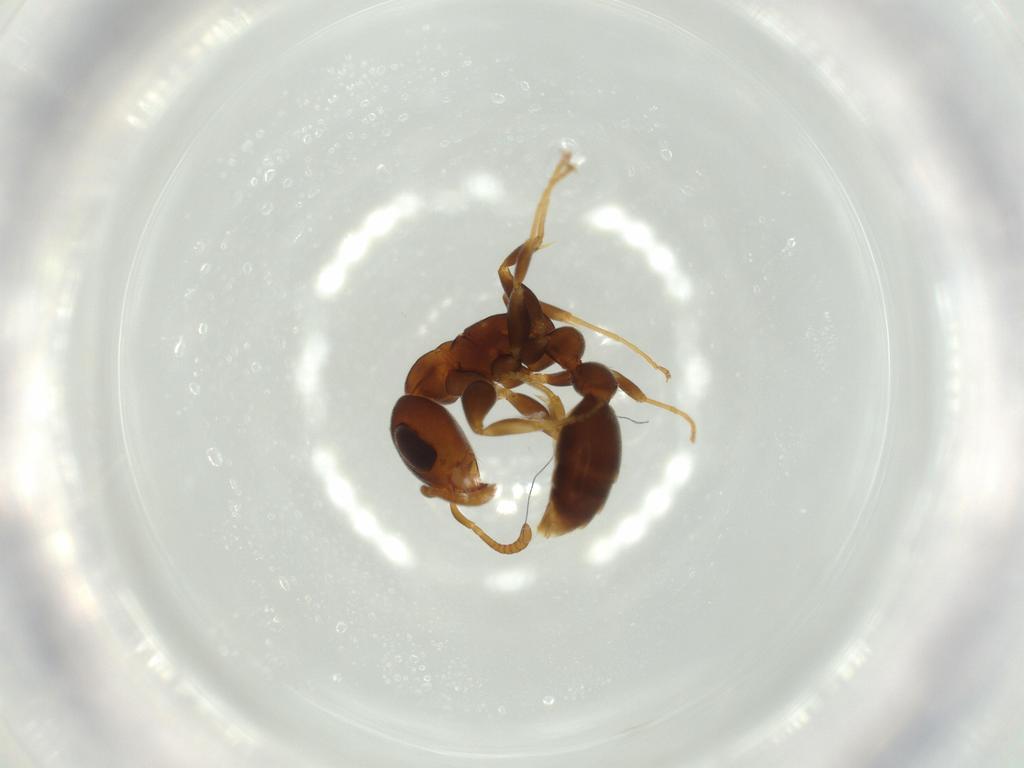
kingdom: Animalia
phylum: Arthropoda
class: Insecta
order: Hymenoptera
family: Formicidae
